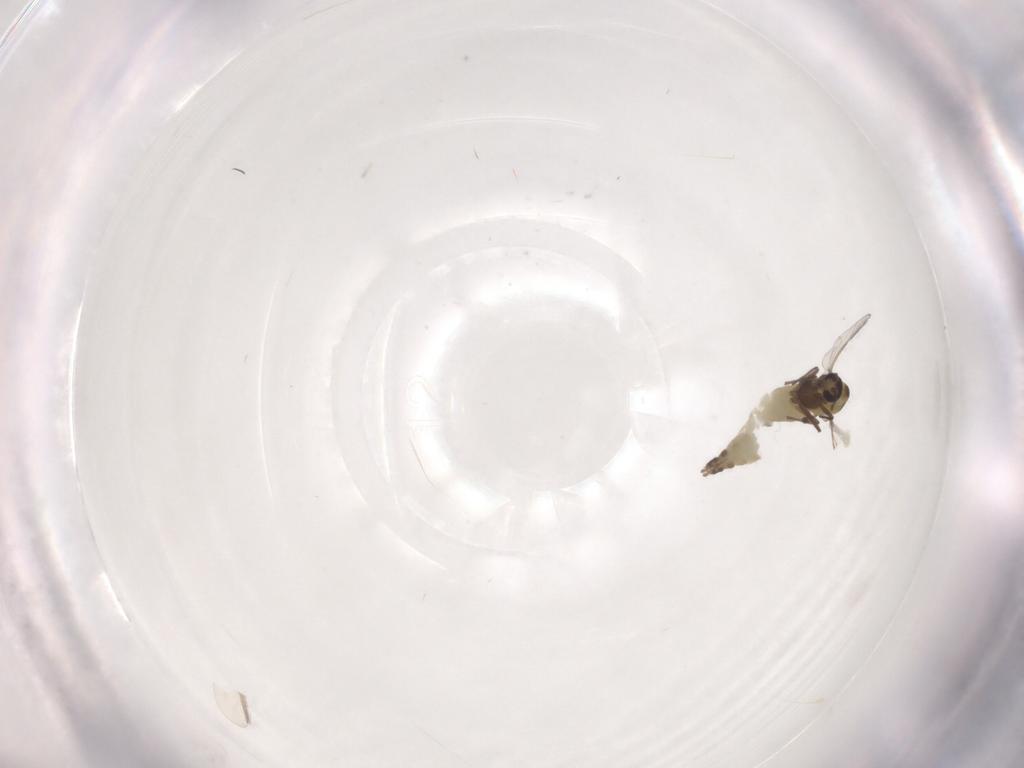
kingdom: Animalia
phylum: Arthropoda
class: Insecta
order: Diptera
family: Chironomidae
